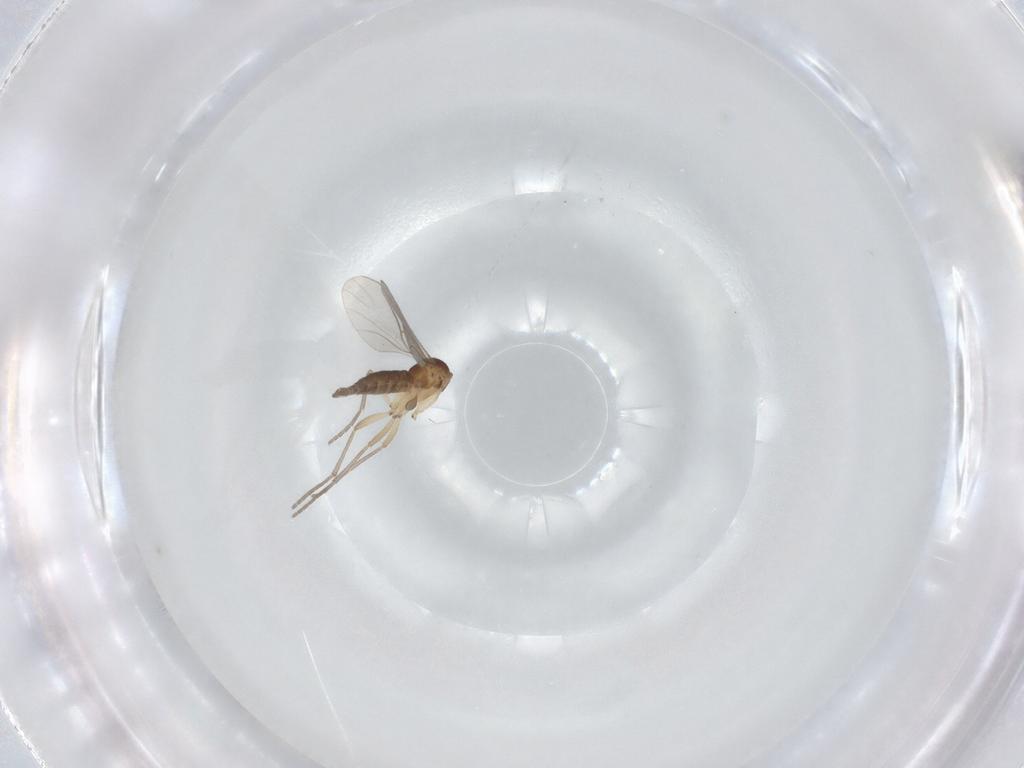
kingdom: Animalia
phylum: Arthropoda
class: Insecta
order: Diptera
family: Sciaridae
